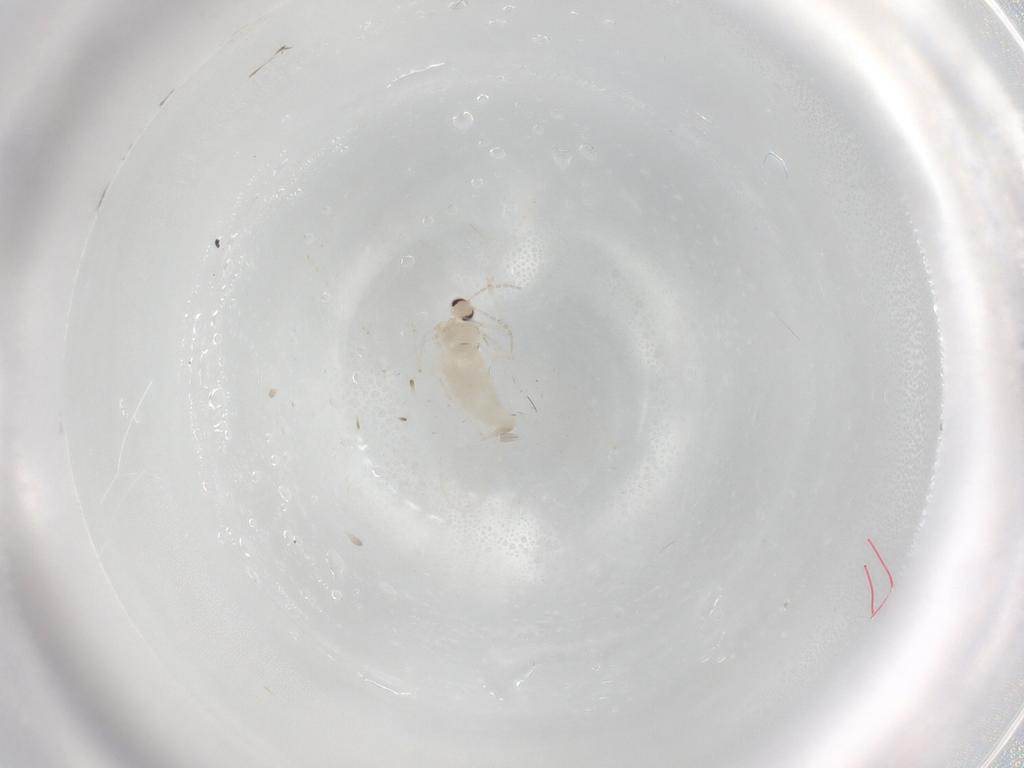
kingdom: Animalia
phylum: Arthropoda
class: Insecta
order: Diptera
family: Cecidomyiidae
